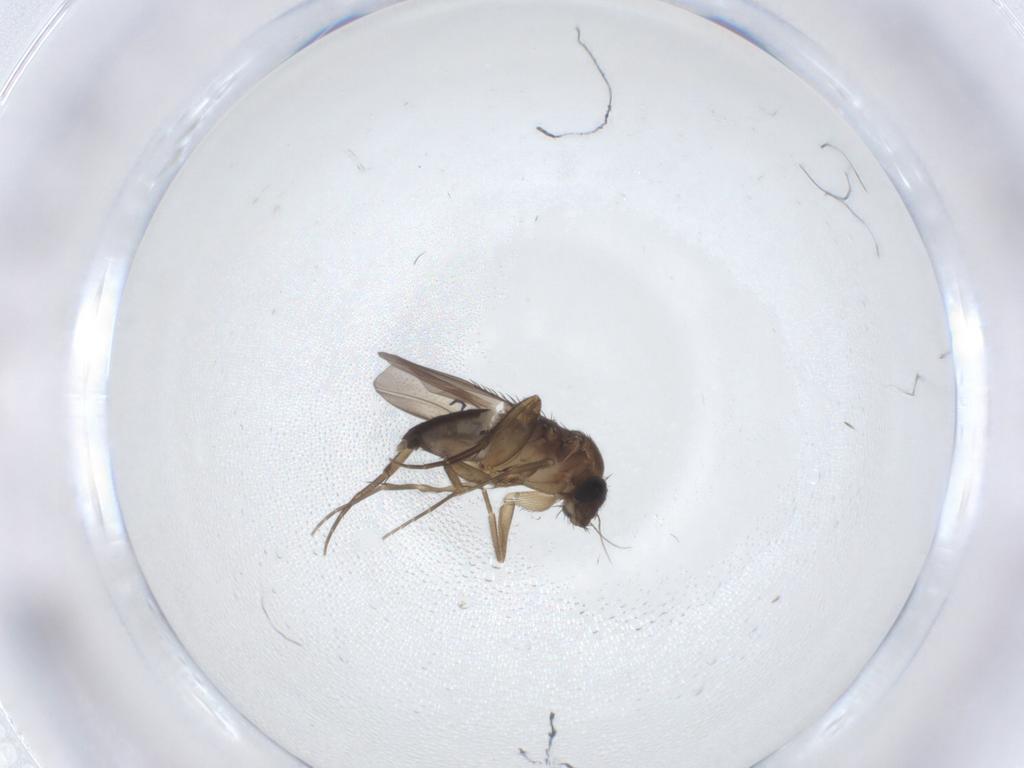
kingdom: Animalia
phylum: Arthropoda
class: Insecta
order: Diptera
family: Phoridae
